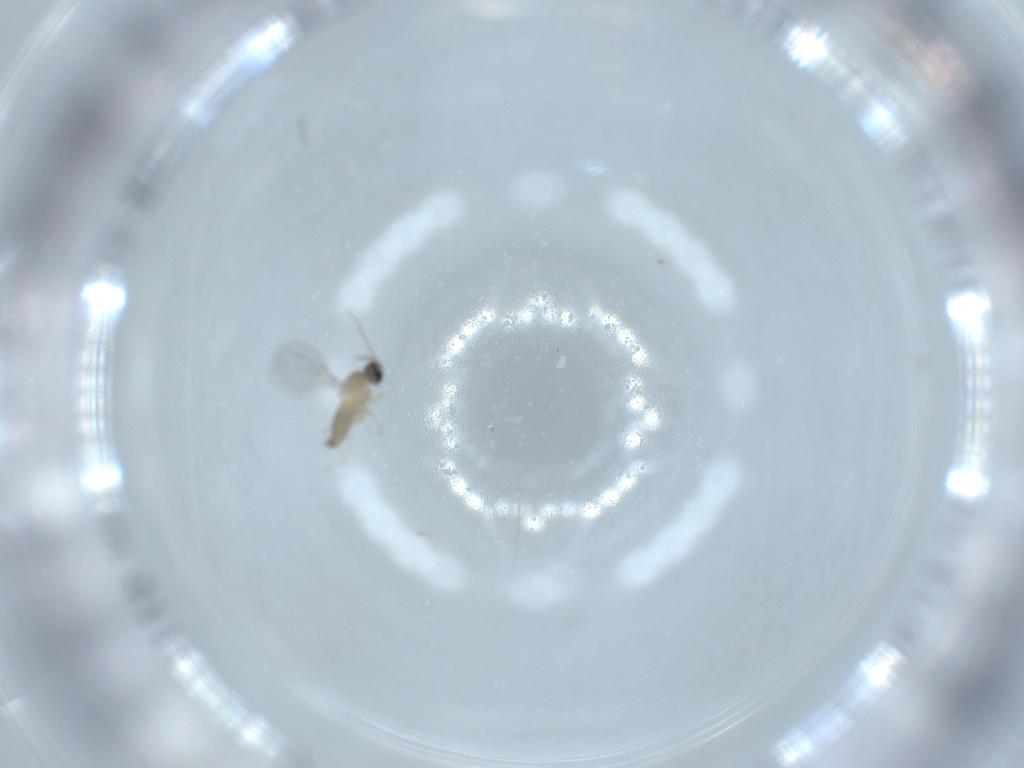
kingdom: Animalia
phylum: Arthropoda
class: Insecta
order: Diptera
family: Cecidomyiidae
